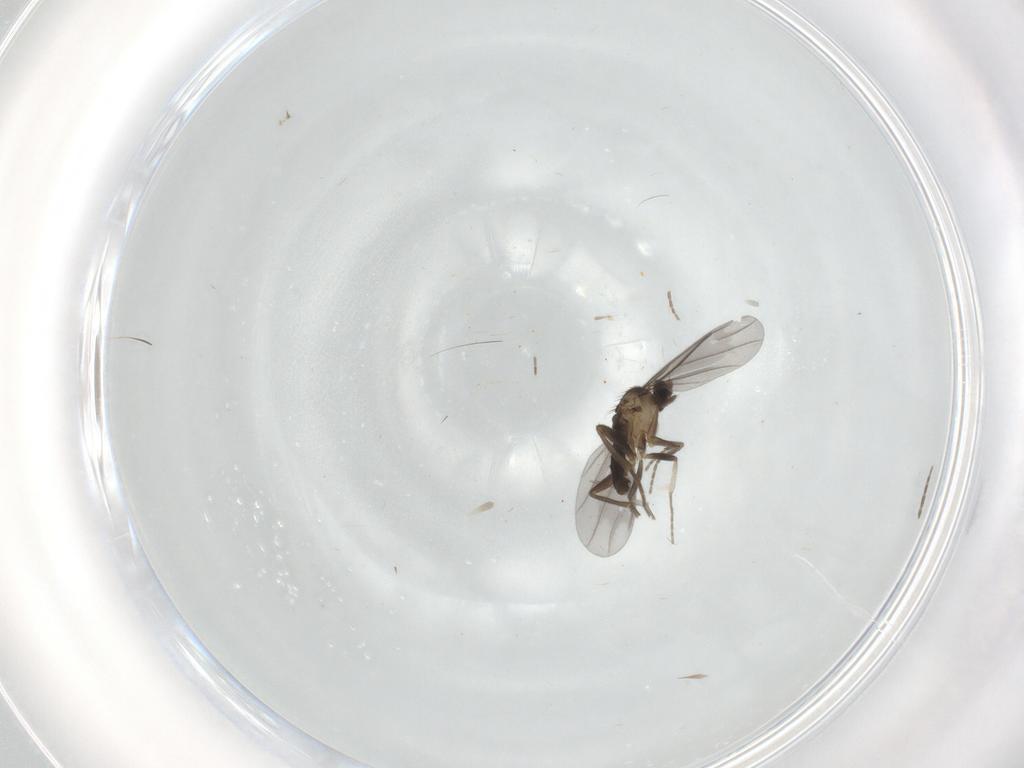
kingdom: Animalia
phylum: Arthropoda
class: Insecta
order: Diptera
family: Phoridae
